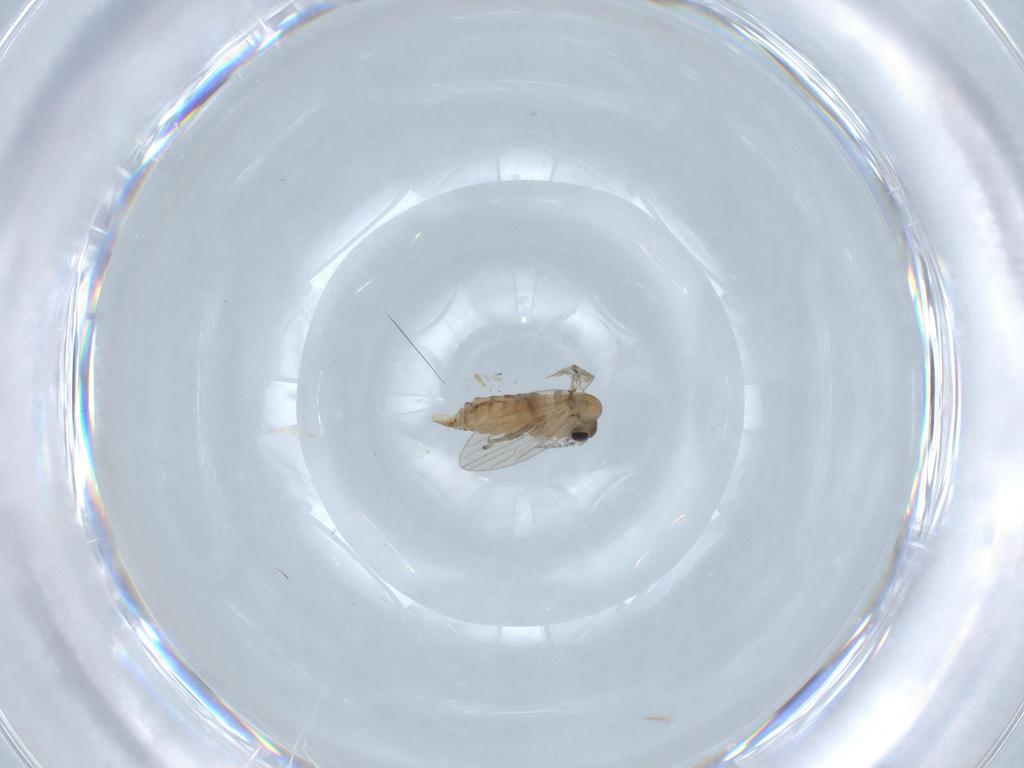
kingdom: Animalia
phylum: Arthropoda
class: Insecta
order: Diptera
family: Psychodidae
